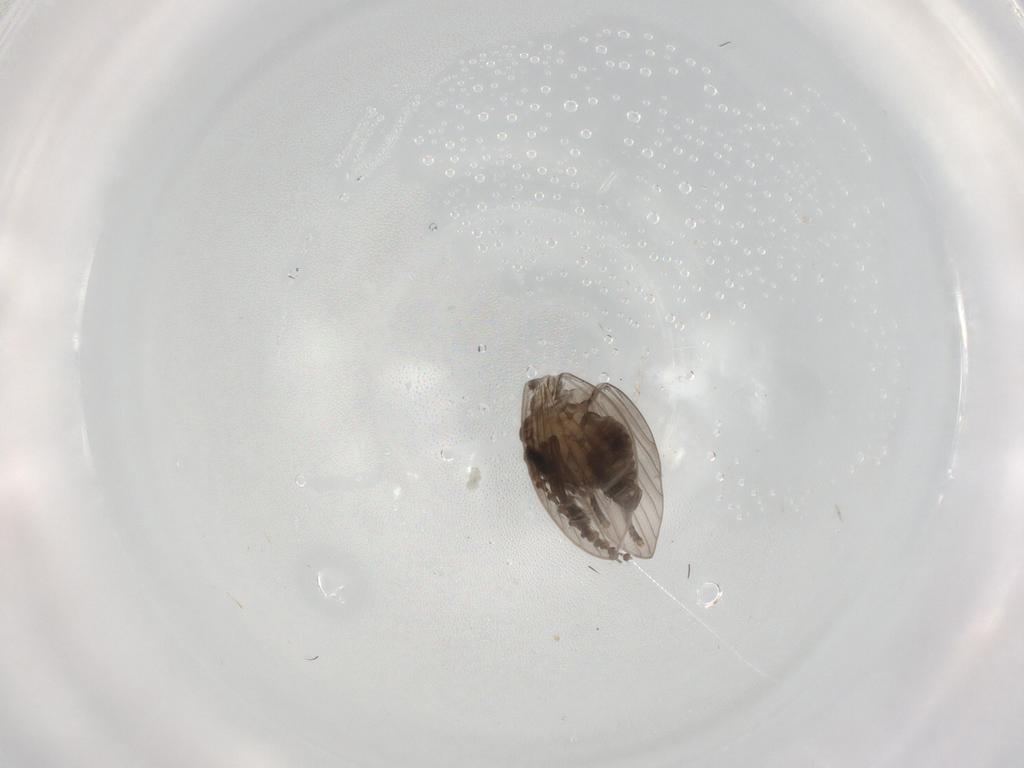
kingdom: Animalia
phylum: Arthropoda
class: Insecta
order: Diptera
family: Psychodidae
